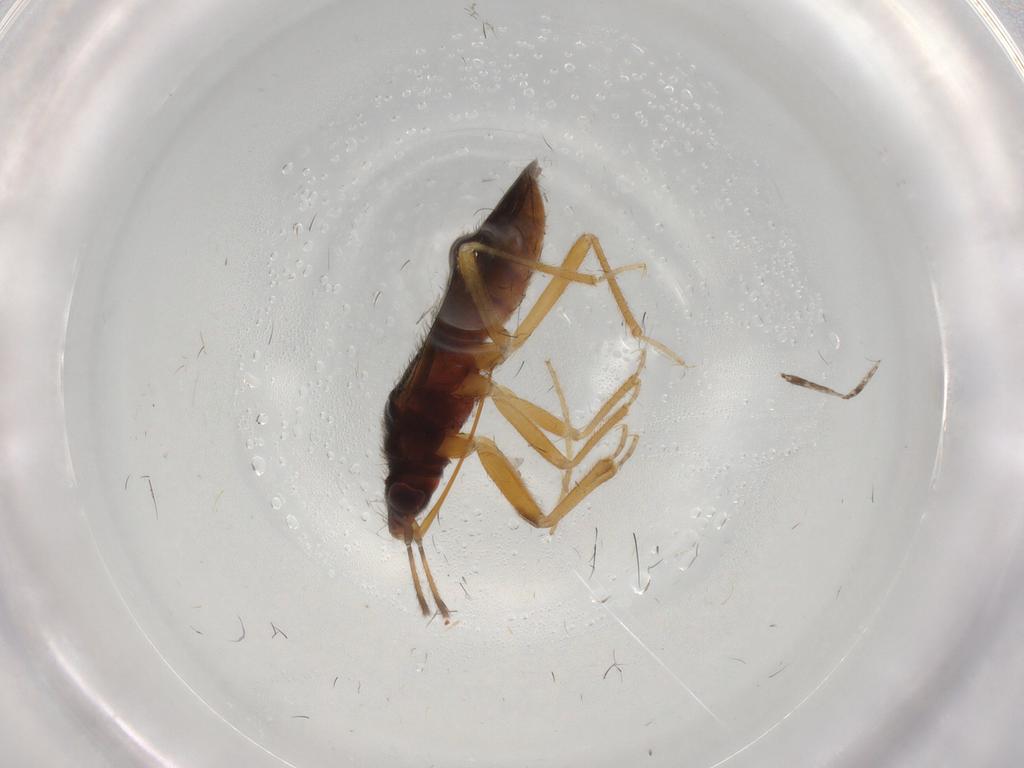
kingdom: Animalia
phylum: Arthropoda
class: Insecta
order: Hemiptera
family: Anthocoridae
